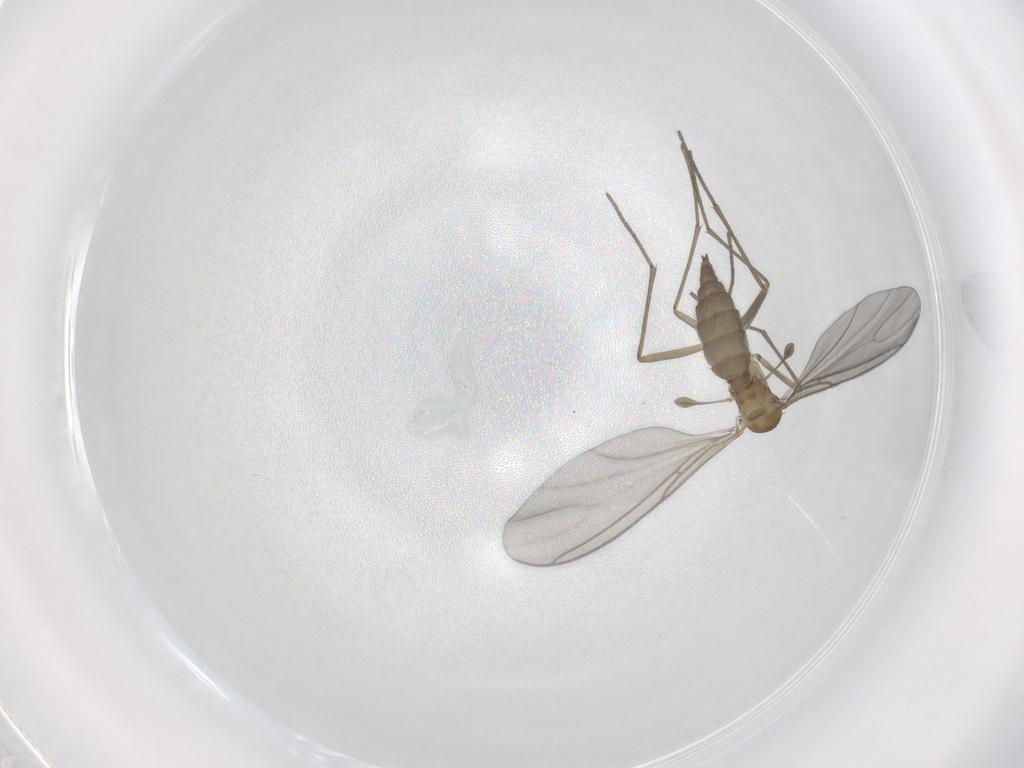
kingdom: Animalia
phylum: Arthropoda
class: Insecta
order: Diptera
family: Sciaridae
